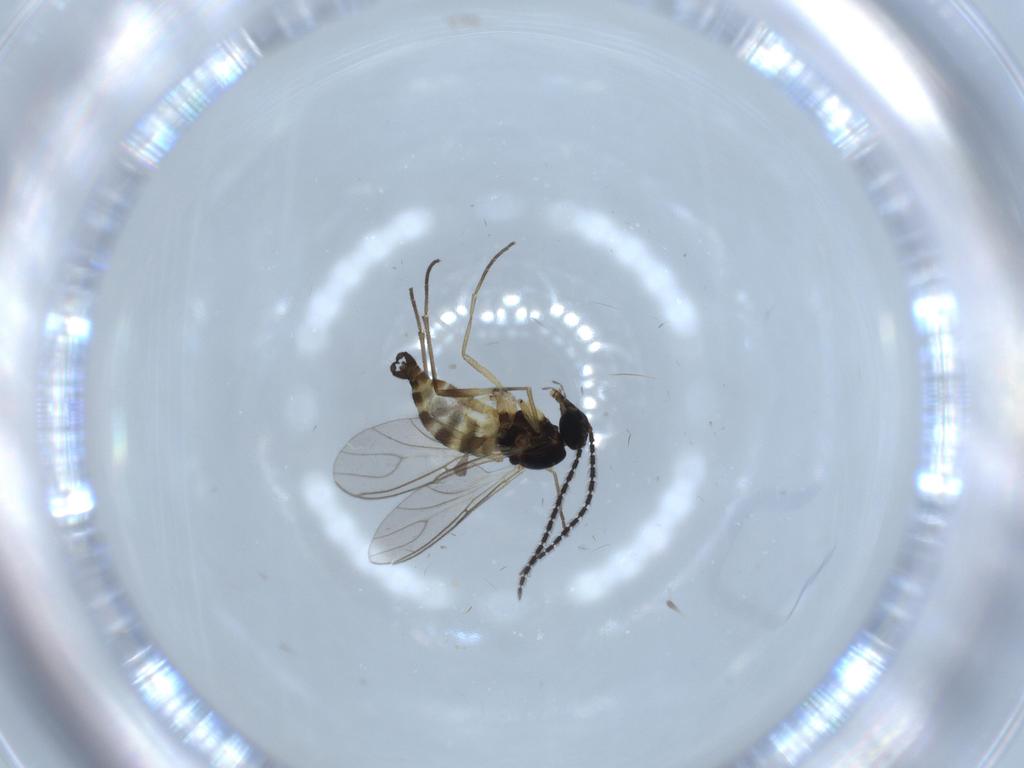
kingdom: Animalia
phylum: Arthropoda
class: Insecta
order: Diptera
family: Sciaridae
